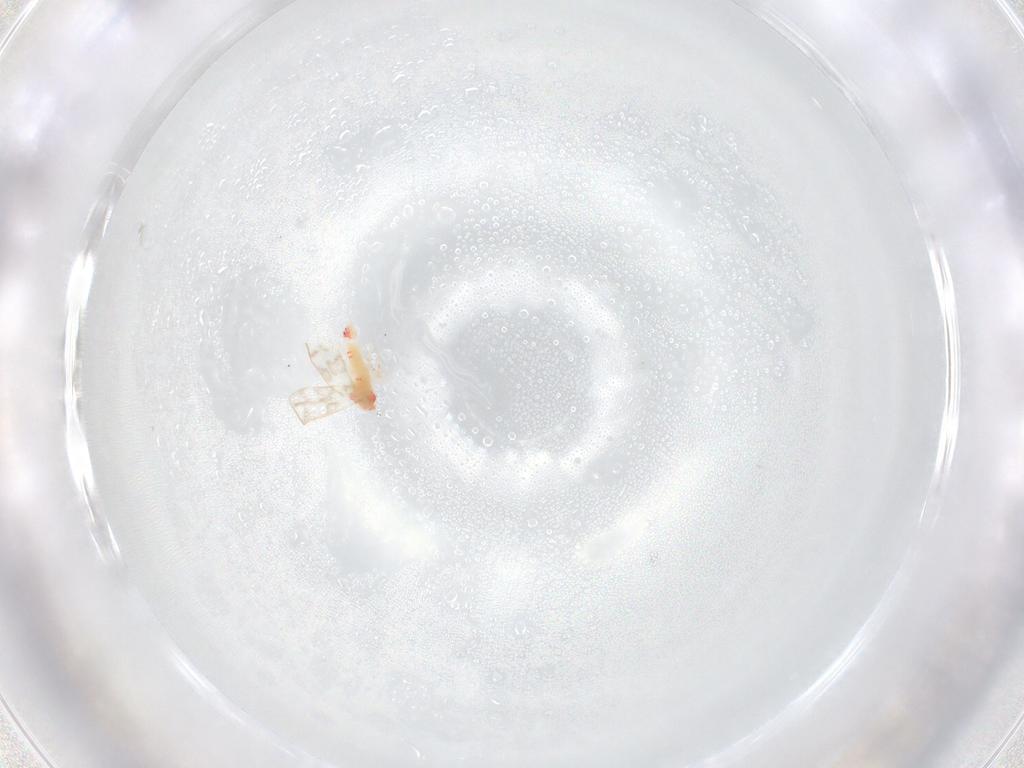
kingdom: Animalia
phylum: Arthropoda
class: Insecta
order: Hemiptera
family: Aleyrodidae
